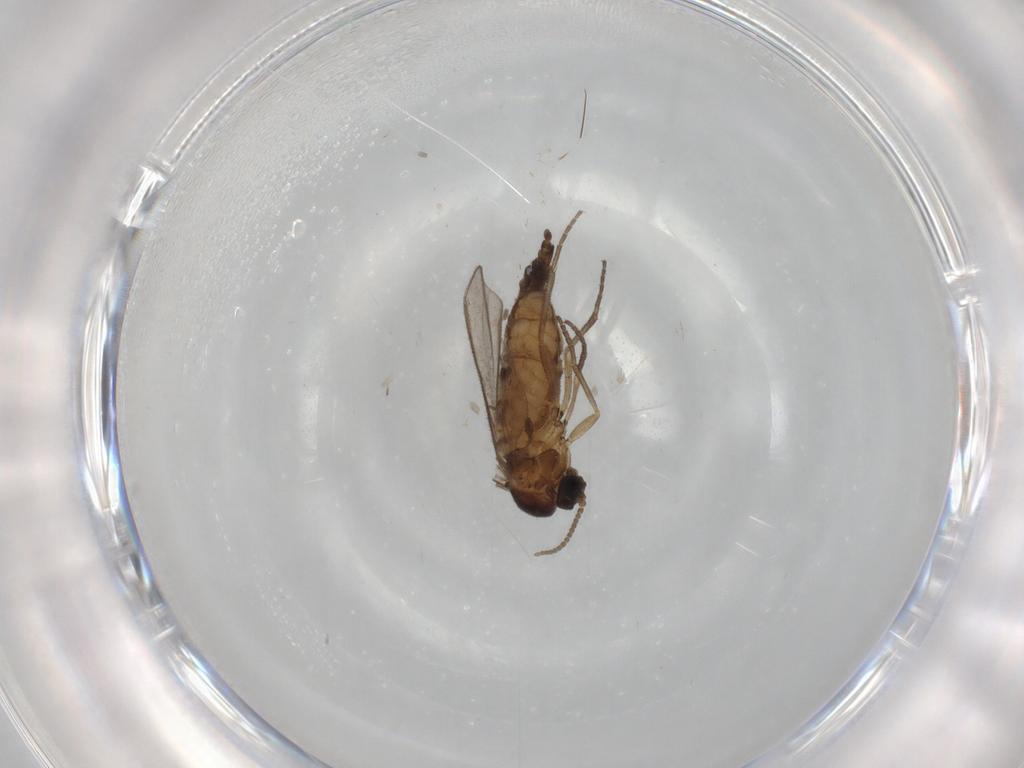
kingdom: Animalia
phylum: Arthropoda
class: Insecta
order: Diptera
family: Sciaridae
